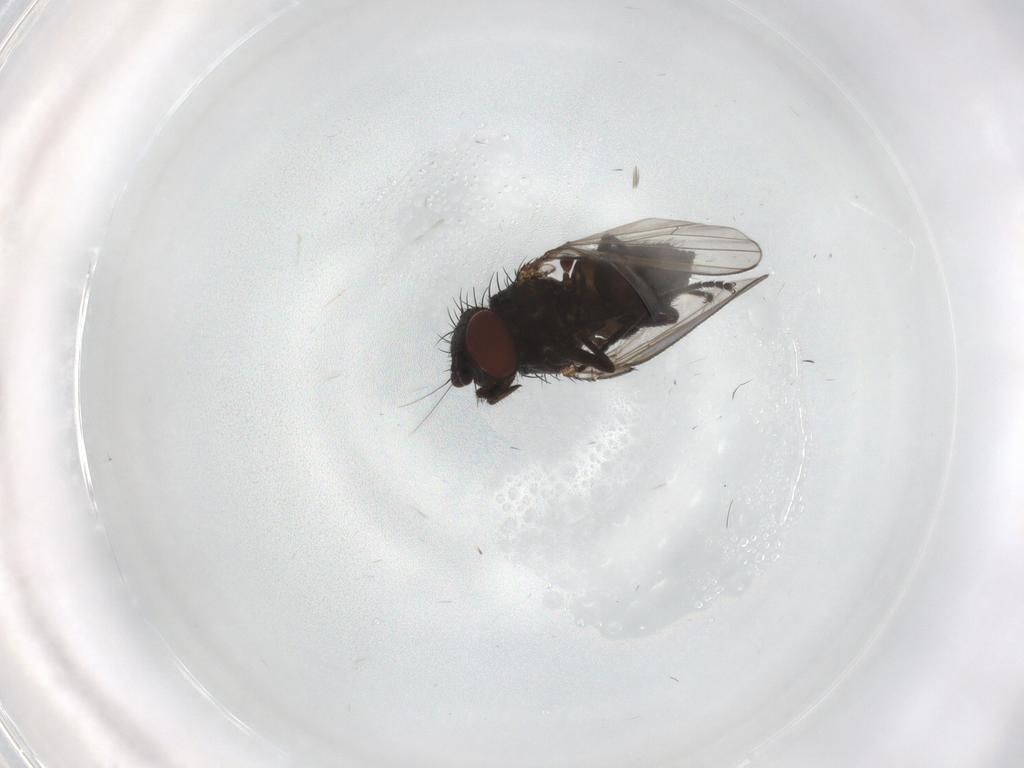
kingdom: Animalia
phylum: Arthropoda
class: Insecta
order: Diptera
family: Milichiidae
